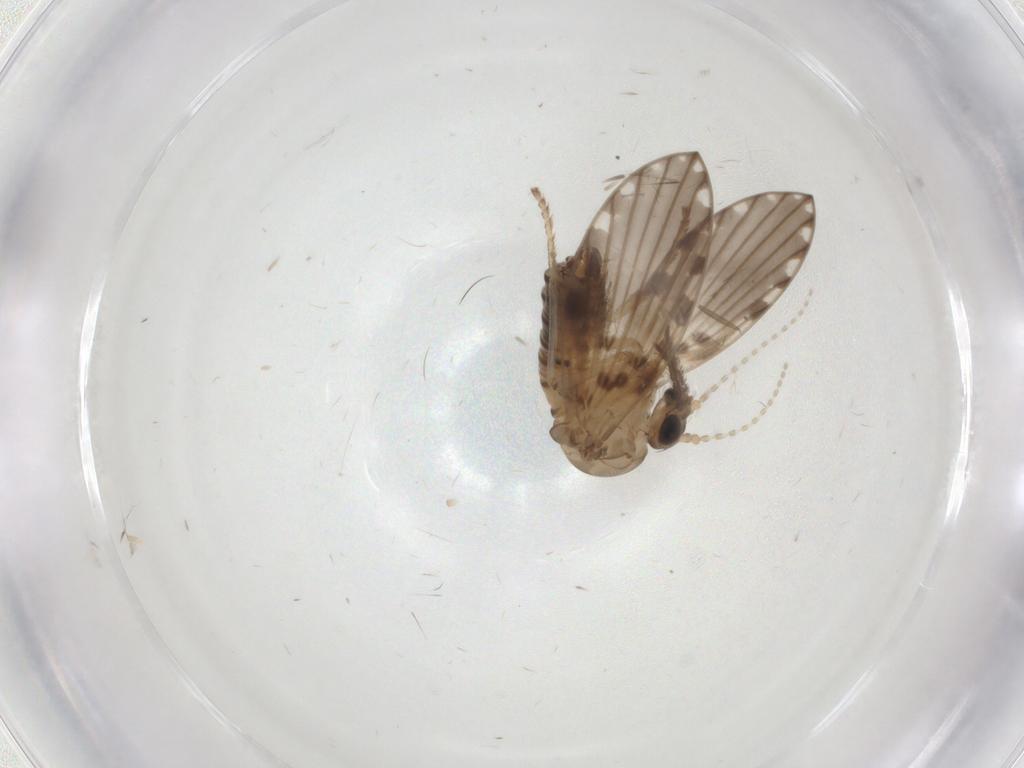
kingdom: Animalia
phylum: Arthropoda
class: Insecta
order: Diptera
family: Psychodidae
